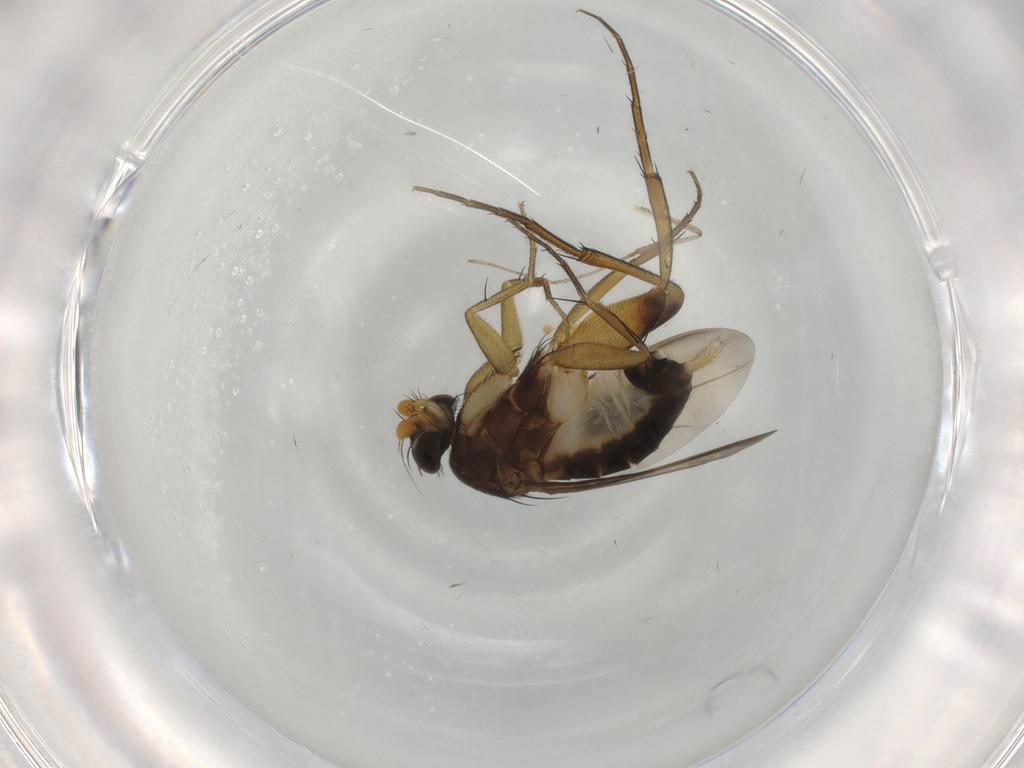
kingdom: Animalia
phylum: Arthropoda
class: Insecta
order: Diptera
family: Phoridae
